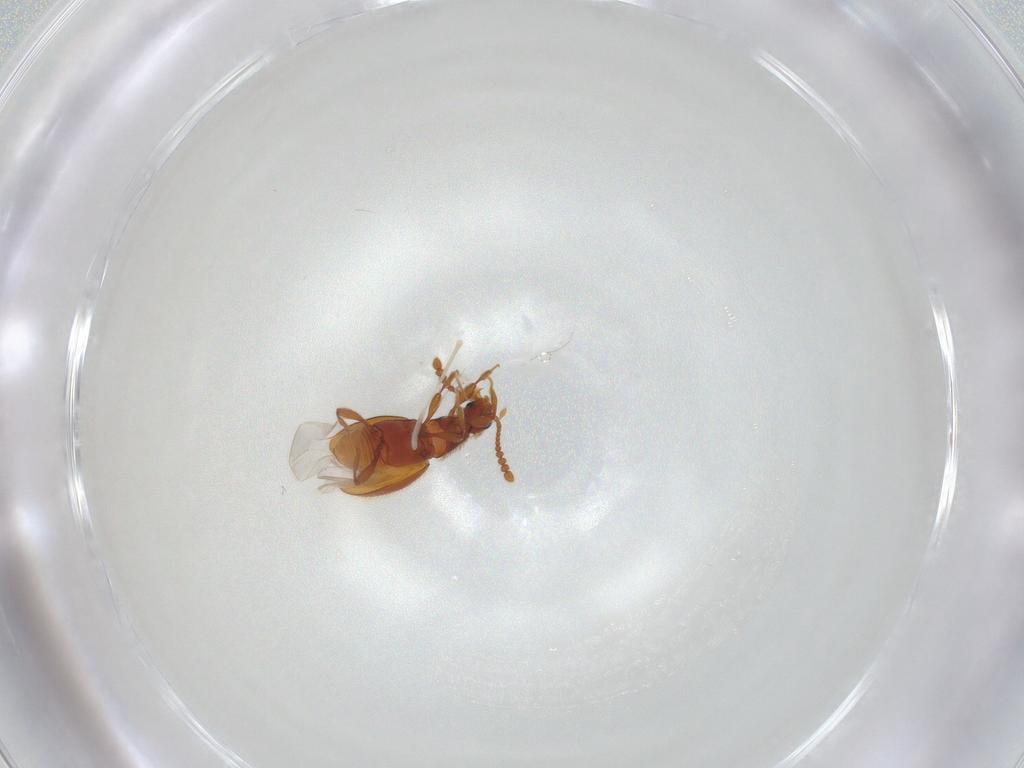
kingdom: Animalia
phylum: Arthropoda
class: Insecta
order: Coleoptera
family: Staphylinidae
